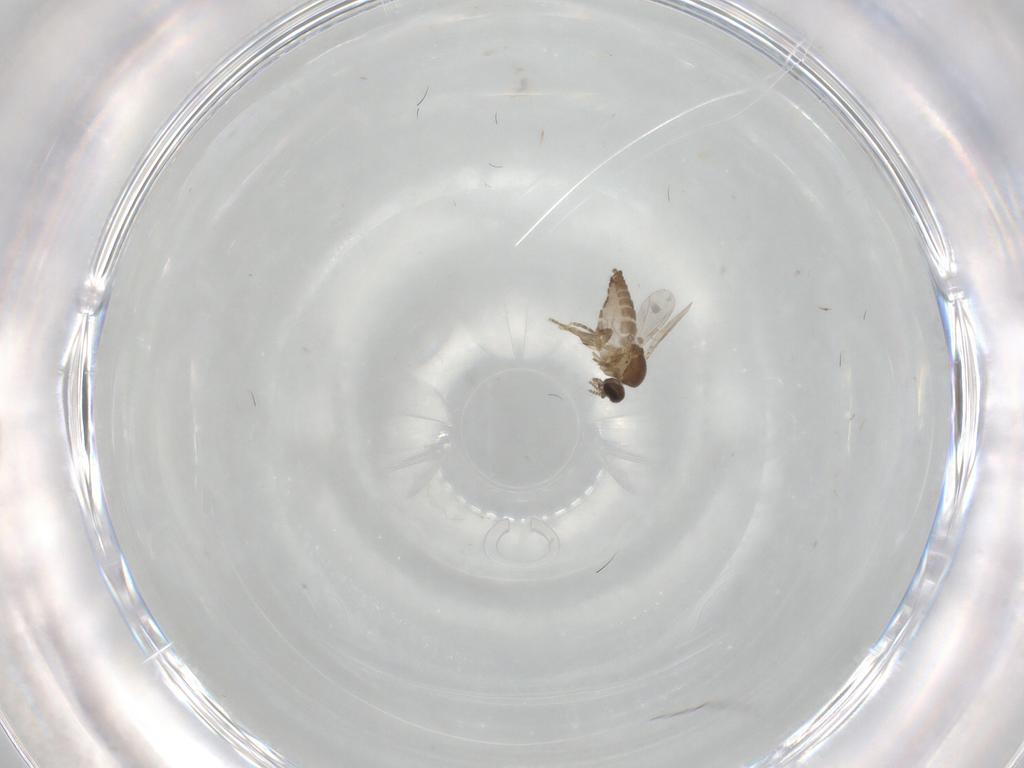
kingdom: Animalia
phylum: Arthropoda
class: Insecta
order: Diptera
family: Ceratopogonidae
